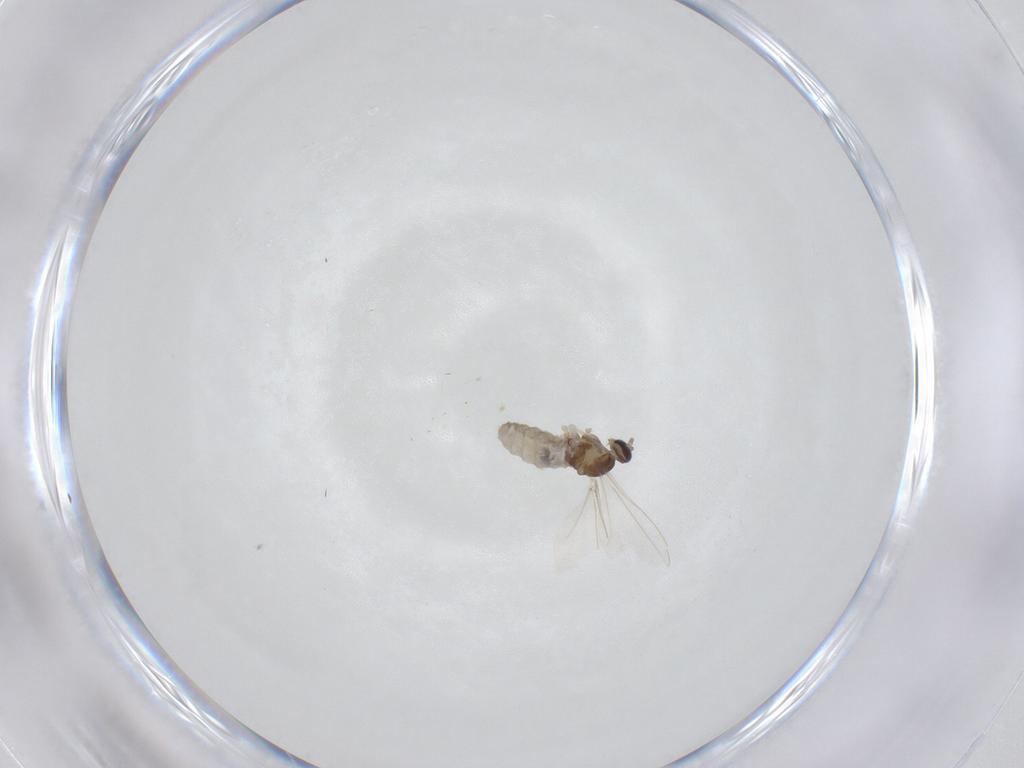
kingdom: Animalia
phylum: Arthropoda
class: Insecta
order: Diptera
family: Cecidomyiidae
